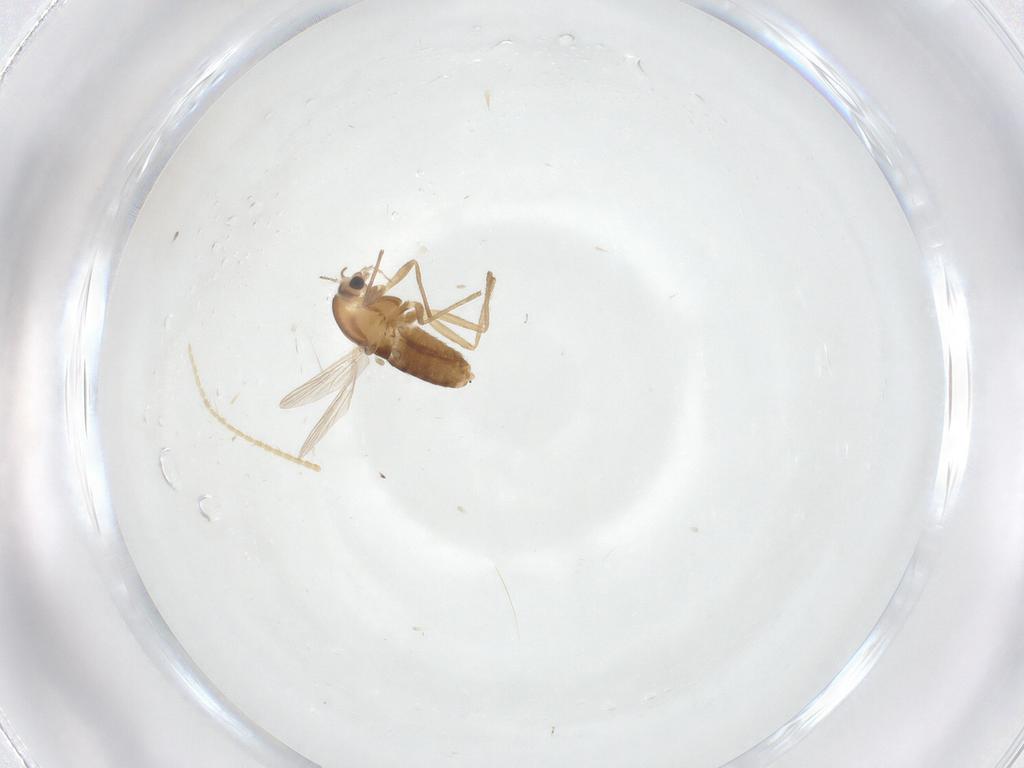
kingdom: Animalia
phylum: Arthropoda
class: Insecta
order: Diptera
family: Chironomidae
